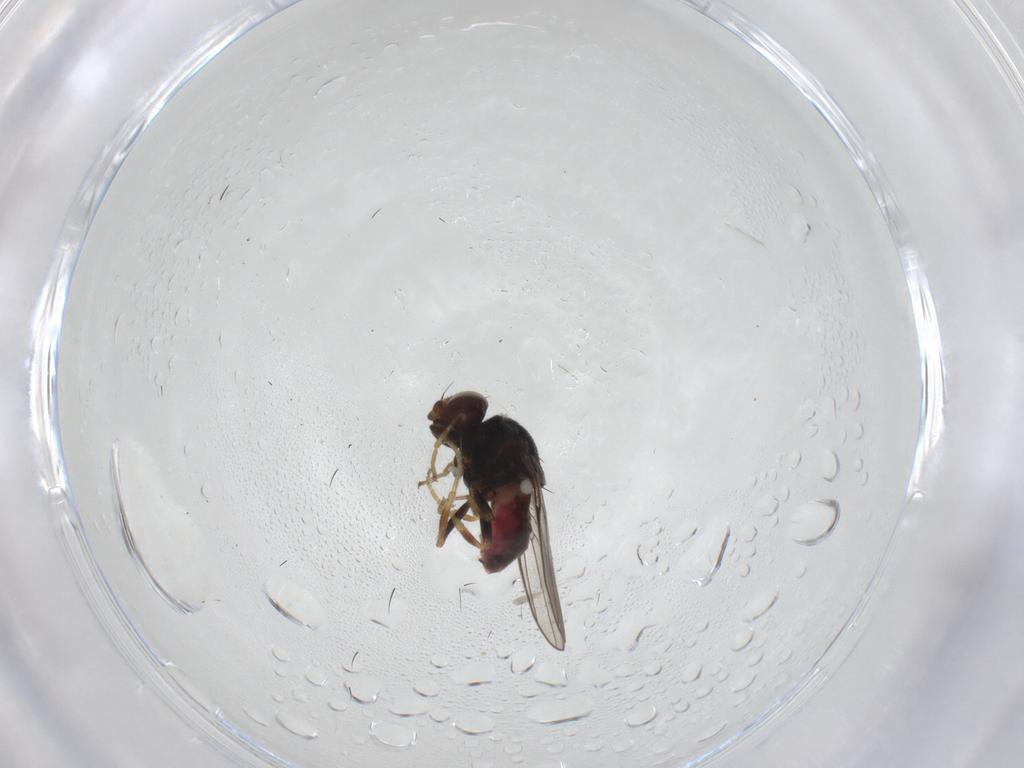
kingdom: Animalia
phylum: Arthropoda
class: Insecta
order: Diptera
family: Chloropidae
